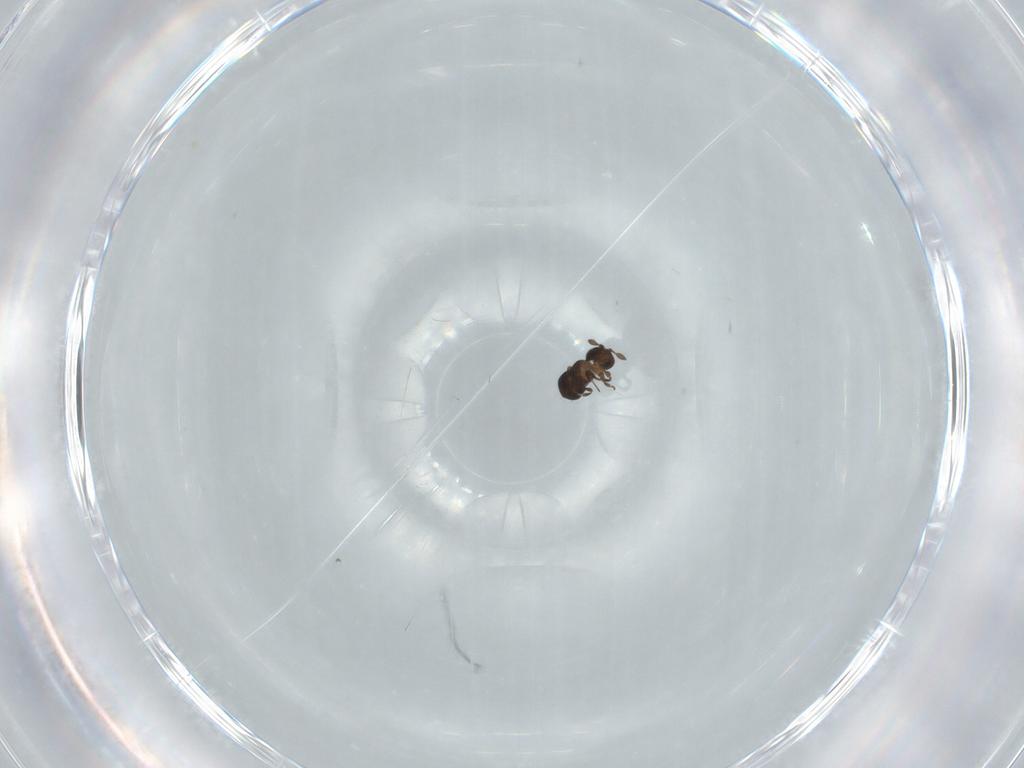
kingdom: Animalia
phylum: Arthropoda
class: Insecta
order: Hymenoptera
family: Scelionidae
